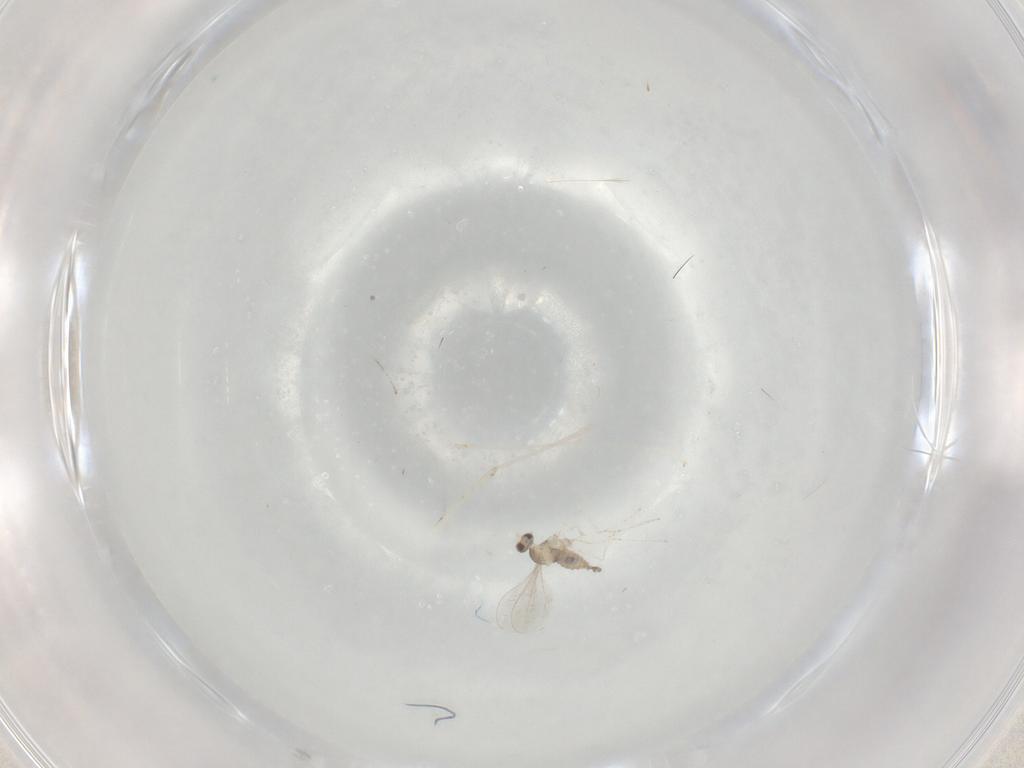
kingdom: Animalia
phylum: Arthropoda
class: Insecta
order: Diptera
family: Cecidomyiidae
